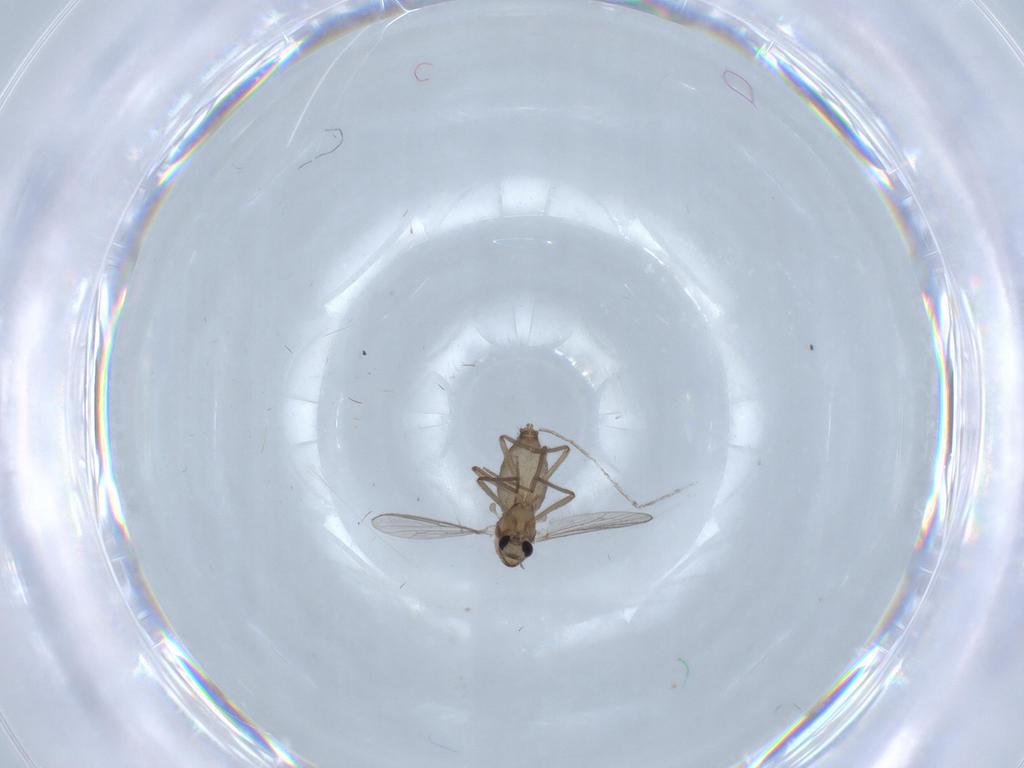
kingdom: Animalia
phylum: Arthropoda
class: Insecta
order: Diptera
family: Chironomidae
